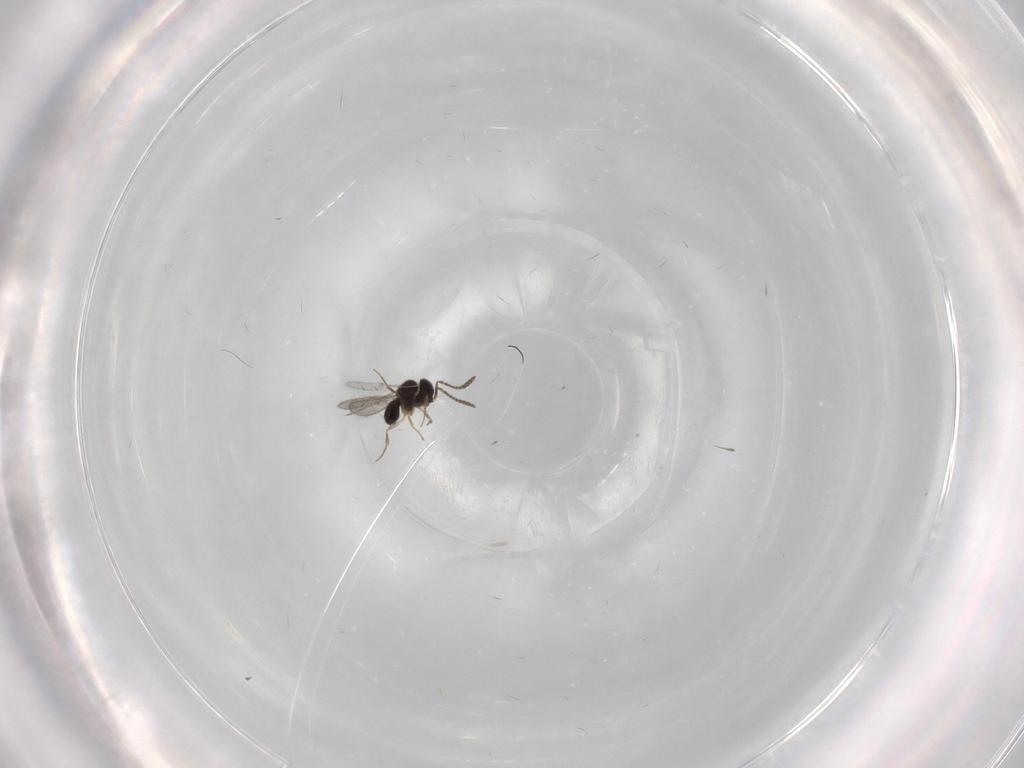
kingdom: Animalia
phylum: Arthropoda
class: Insecta
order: Hymenoptera
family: Scelionidae
